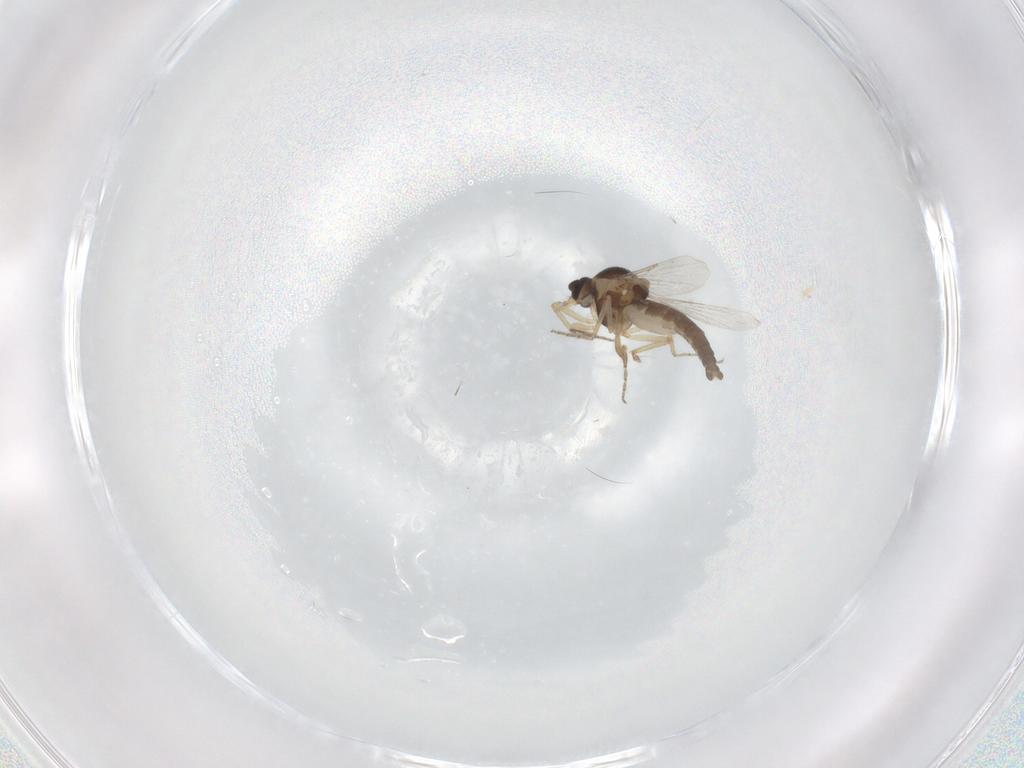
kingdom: Animalia
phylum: Arthropoda
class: Insecta
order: Diptera
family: Ceratopogonidae
